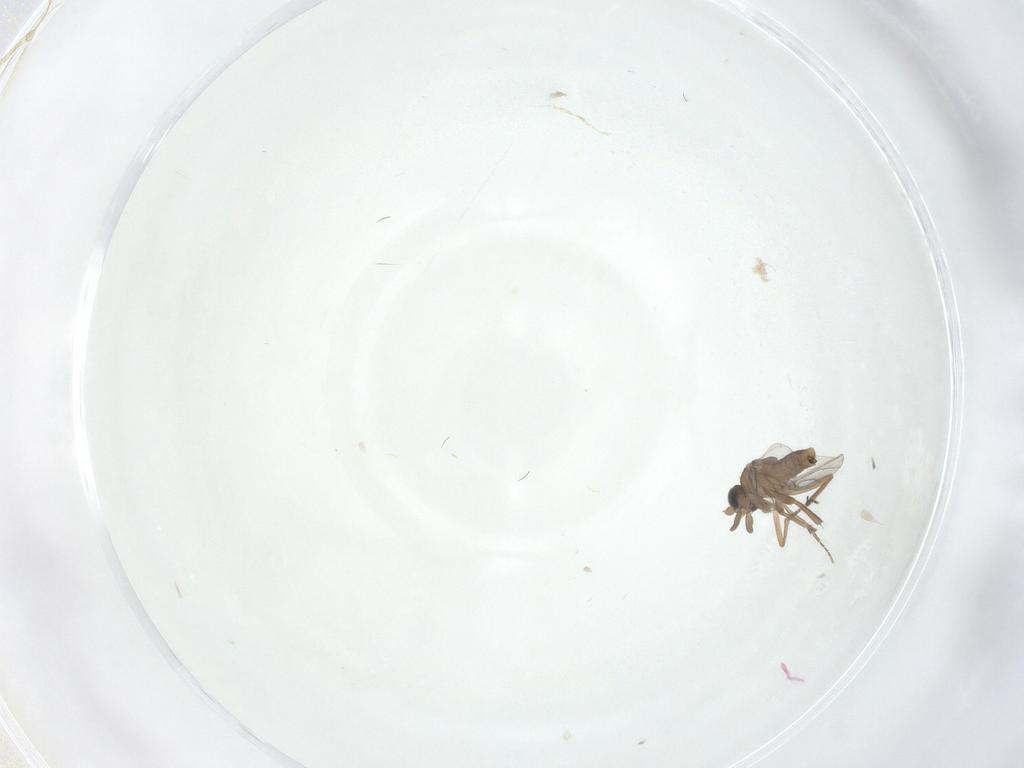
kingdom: Animalia
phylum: Arthropoda
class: Insecta
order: Diptera
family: Phoridae
